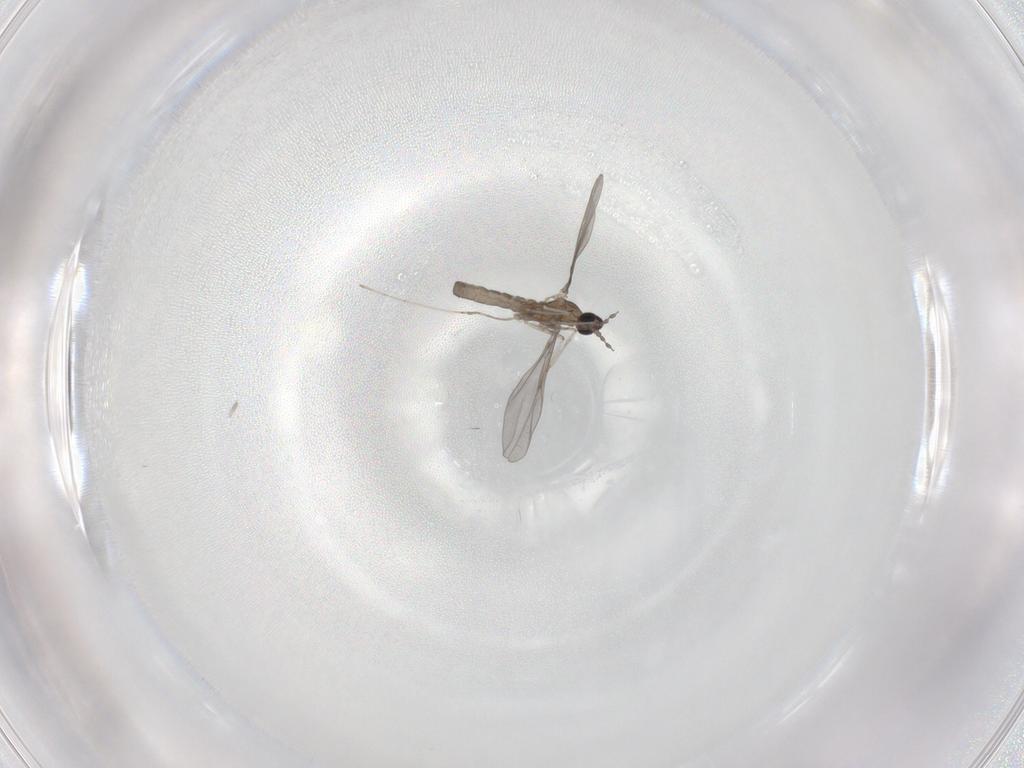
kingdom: Animalia
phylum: Arthropoda
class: Insecta
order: Diptera
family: Cecidomyiidae
